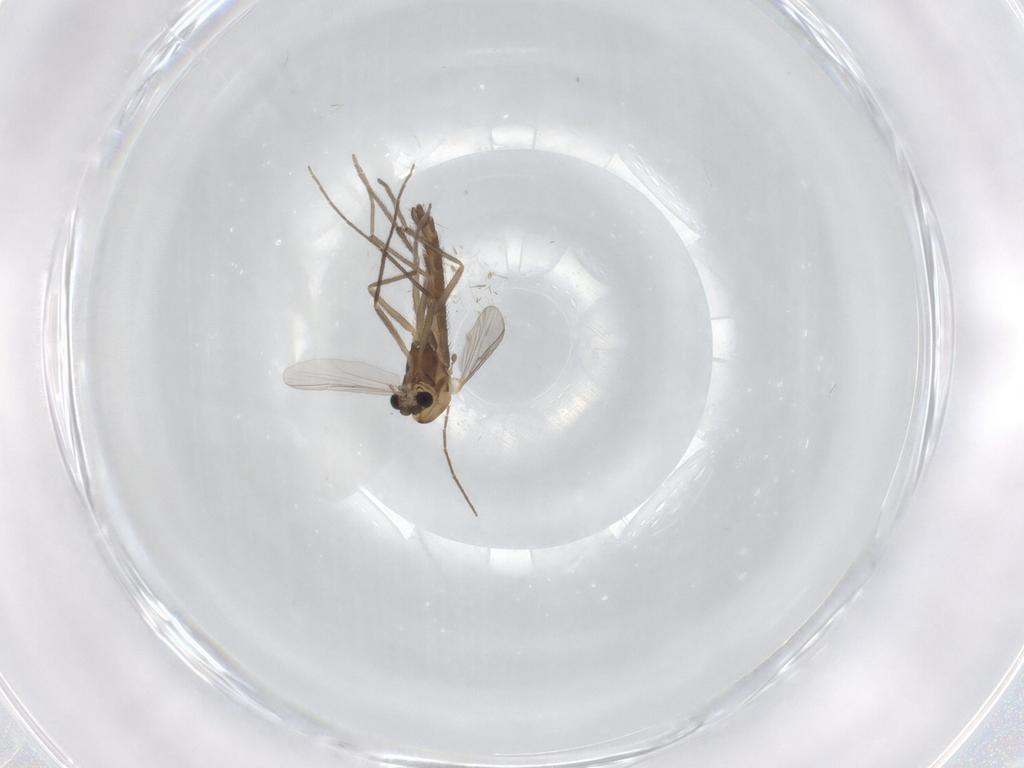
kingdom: Animalia
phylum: Arthropoda
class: Insecta
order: Diptera
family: Chironomidae
